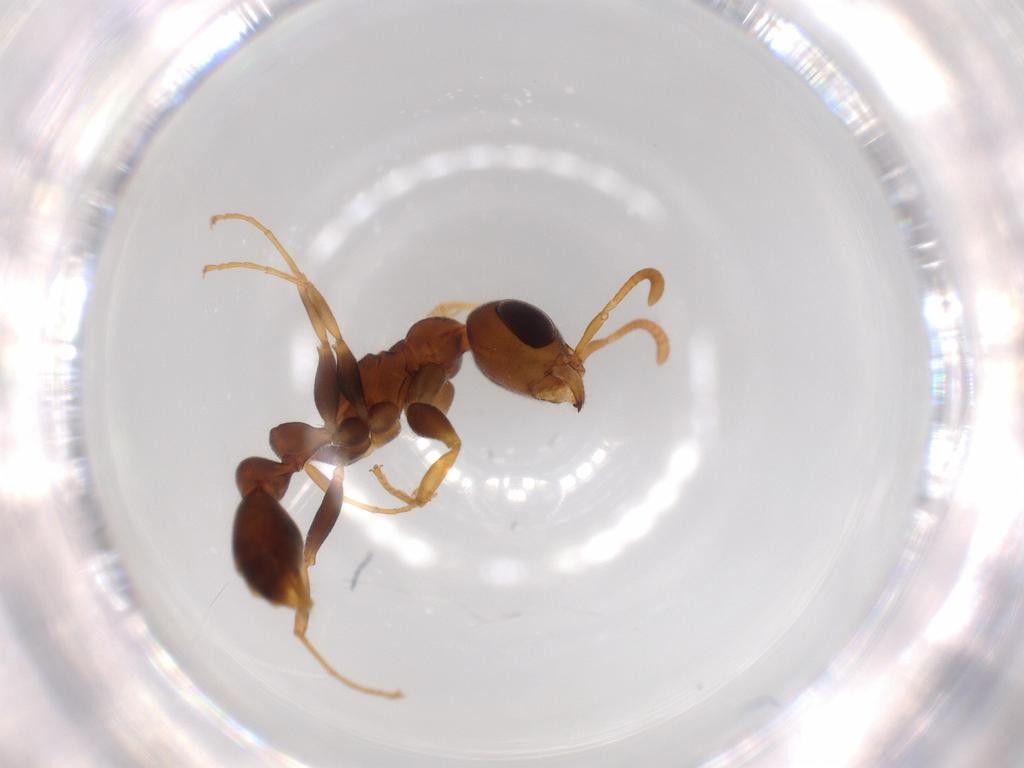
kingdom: Animalia
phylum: Arthropoda
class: Insecta
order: Hymenoptera
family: Formicidae
